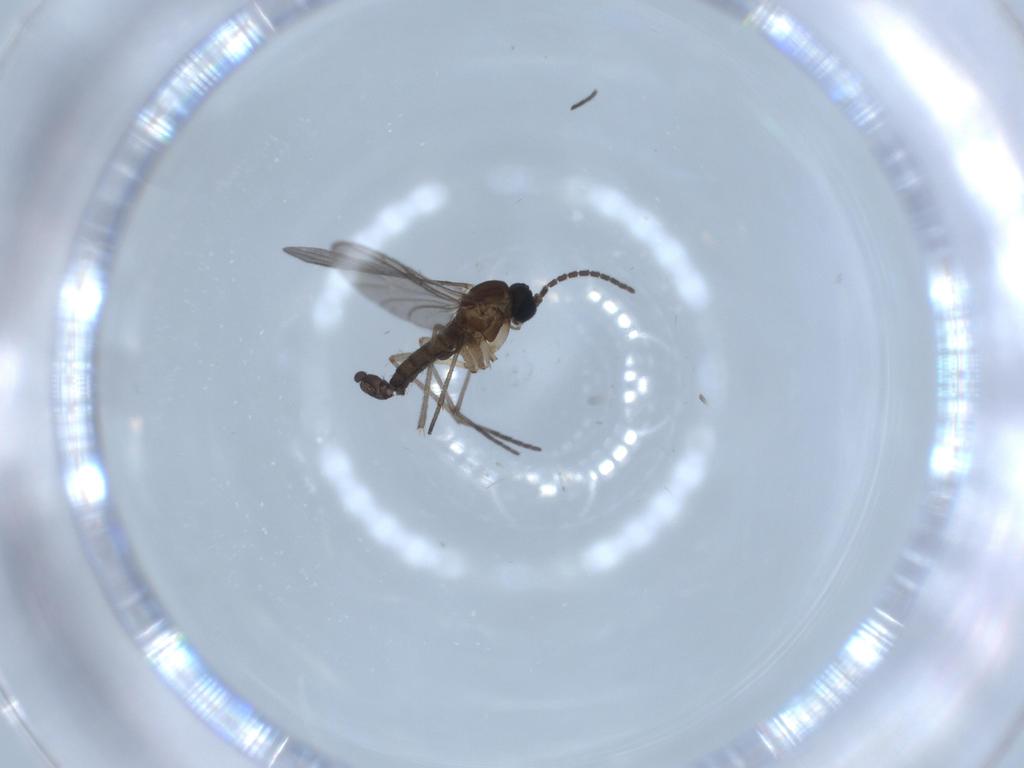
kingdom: Animalia
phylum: Arthropoda
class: Insecta
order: Diptera
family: Sciaridae
